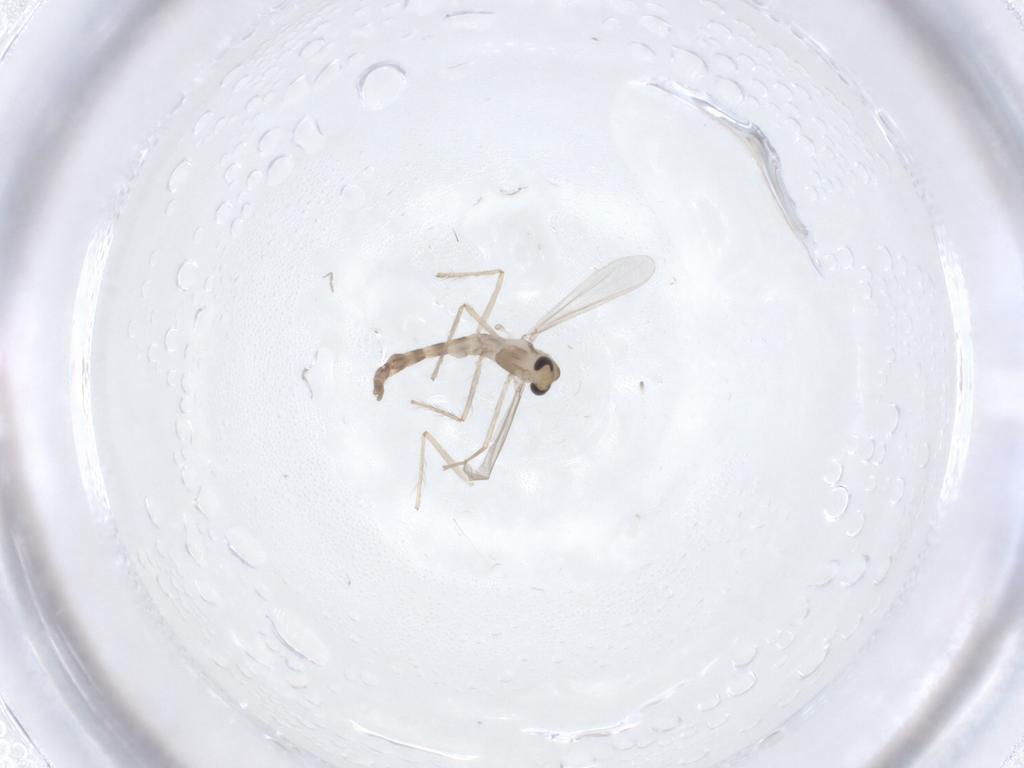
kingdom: Animalia
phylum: Arthropoda
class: Insecta
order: Diptera
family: Chironomidae
